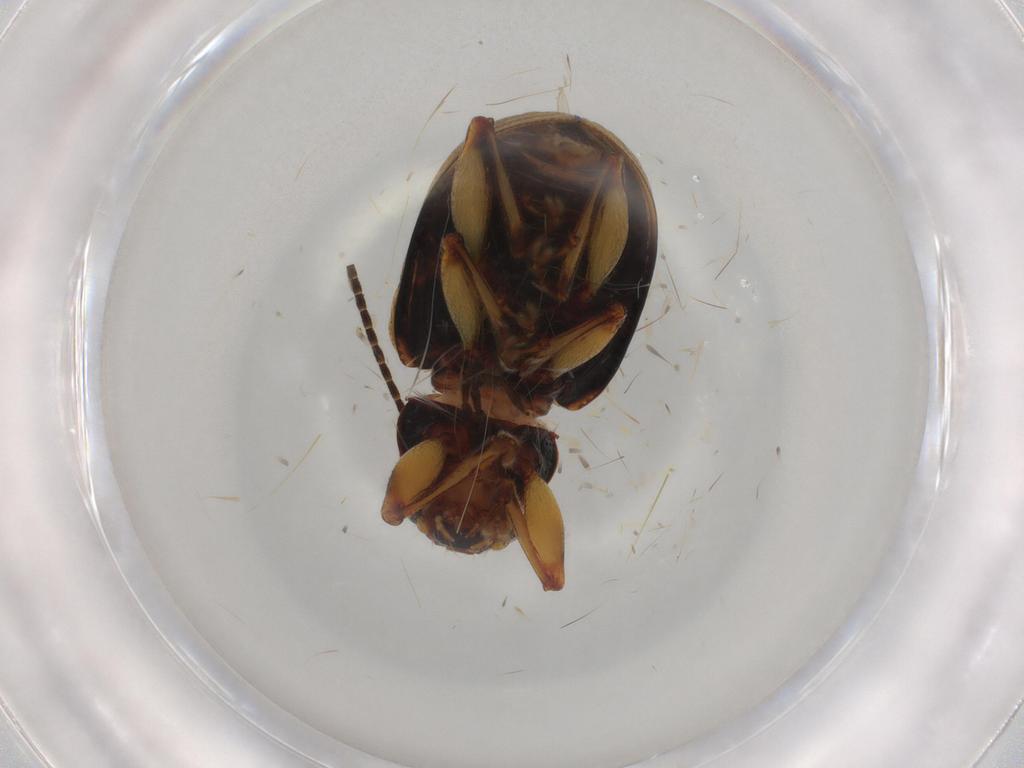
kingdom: Animalia
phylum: Arthropoda
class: Insecta
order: Coleoptera
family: Chrysomelidae
